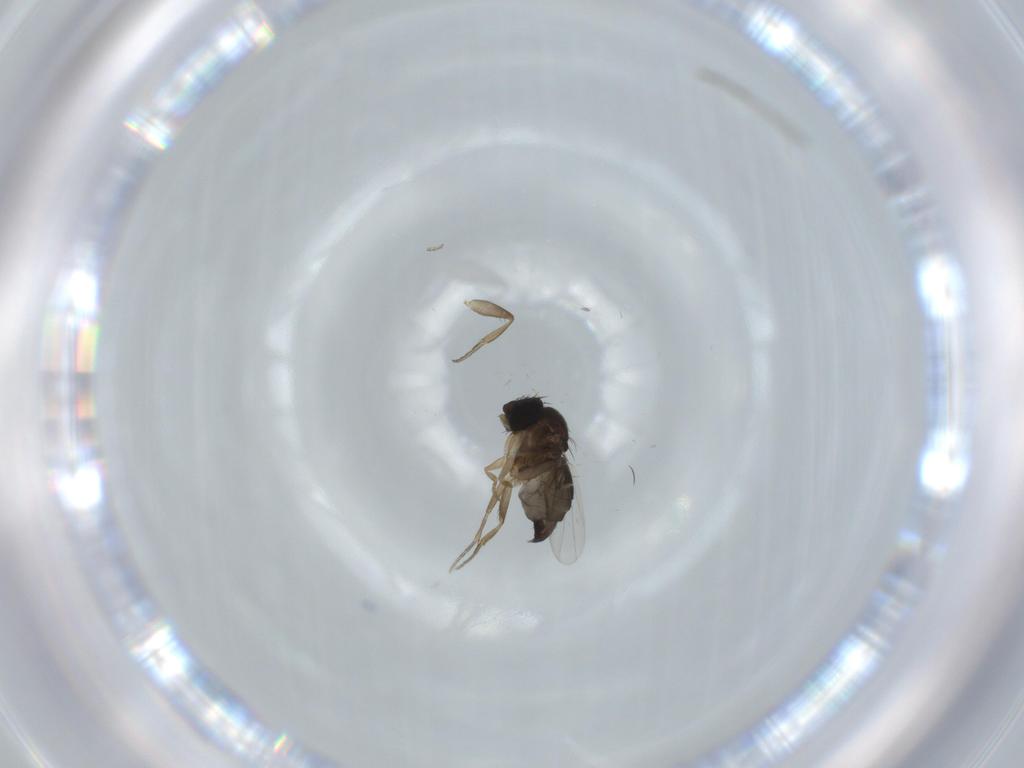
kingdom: Animalia
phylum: Arthropoda
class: Insecta
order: Diptera
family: Phoridae
